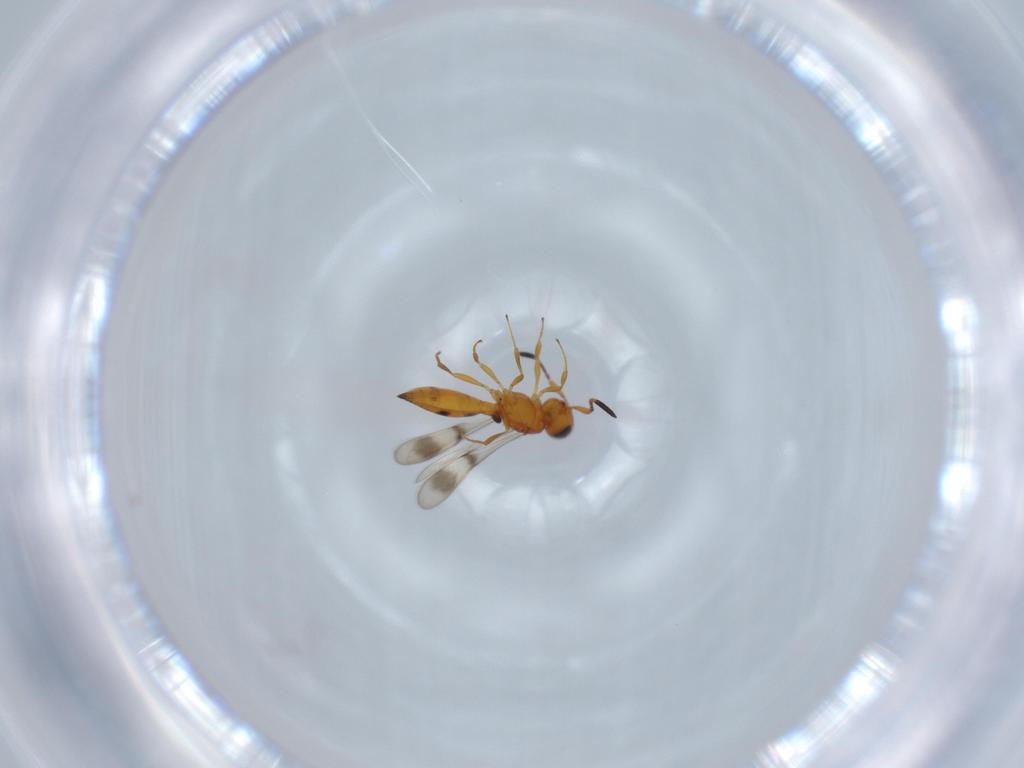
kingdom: Animalia
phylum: Arthropoda
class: Insecta
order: Hymenoptera
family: Scelionidae
